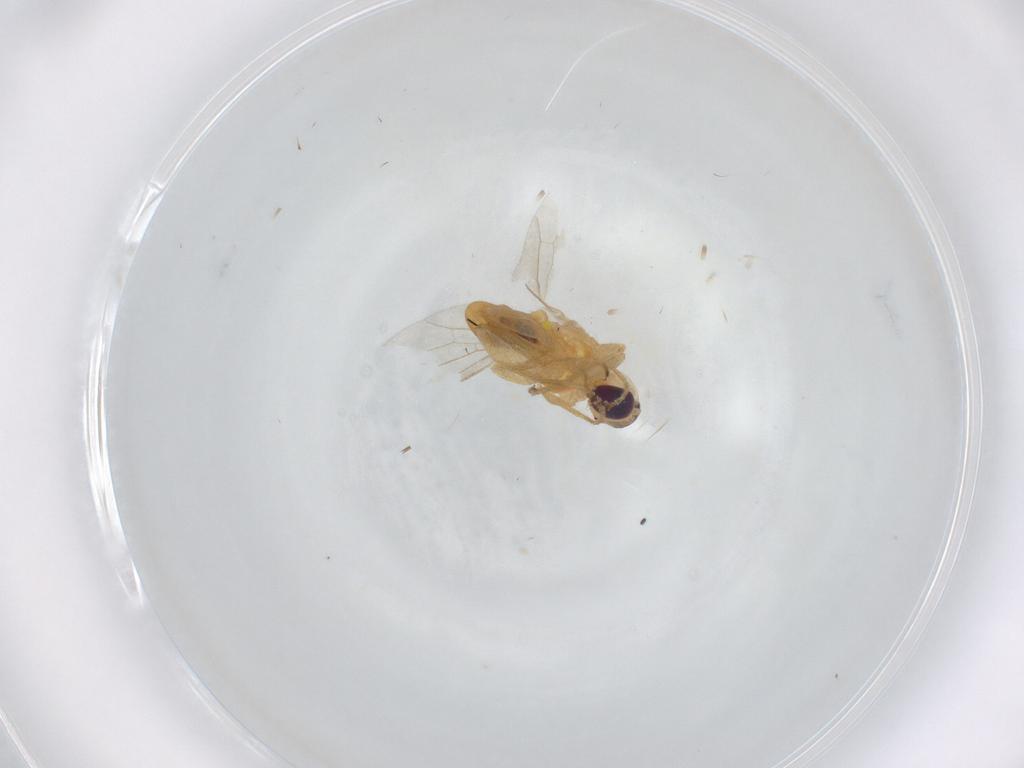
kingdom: Animalia
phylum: Arthropoda
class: Insecta
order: Diptera
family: Chyromyidae
